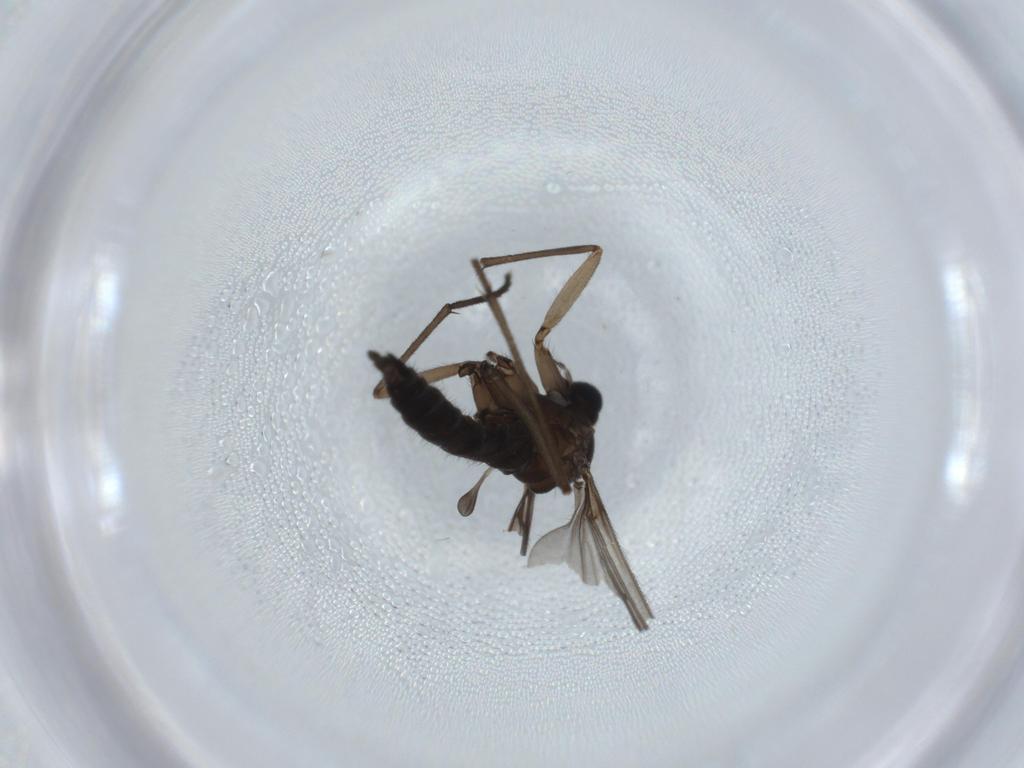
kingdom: Animalia
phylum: Arthropoda
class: Insecta
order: Diptera
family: Sciaridae
